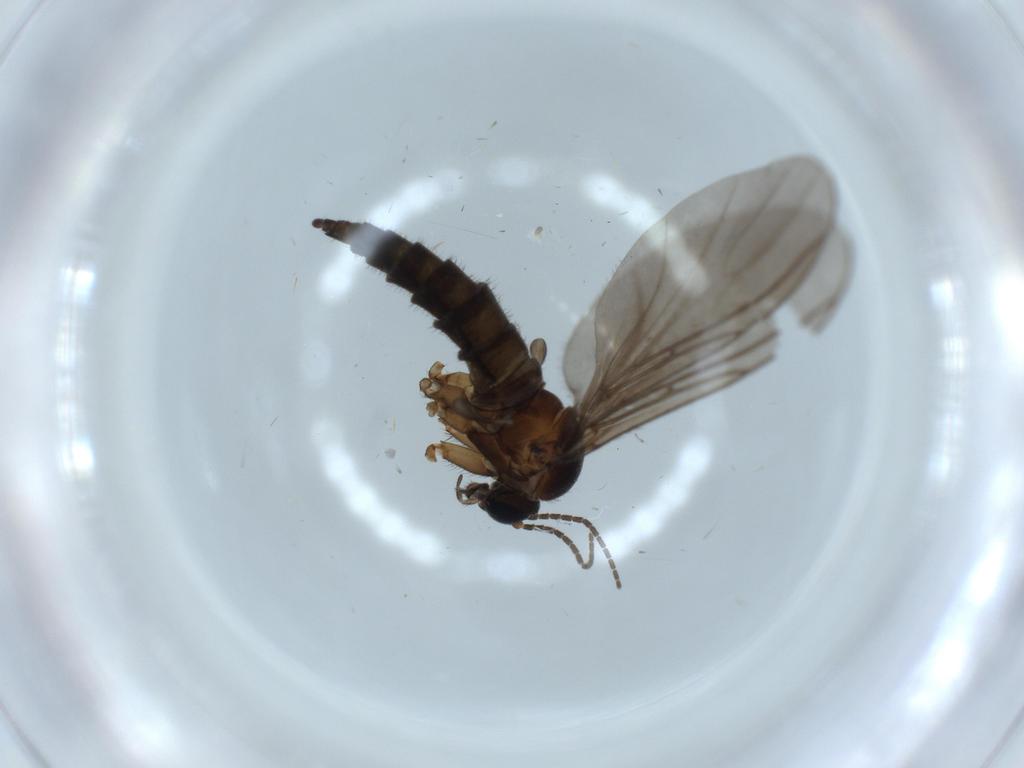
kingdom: Animalia
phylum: Arthropoda
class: Insecta
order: Diptera
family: Sciaridae
